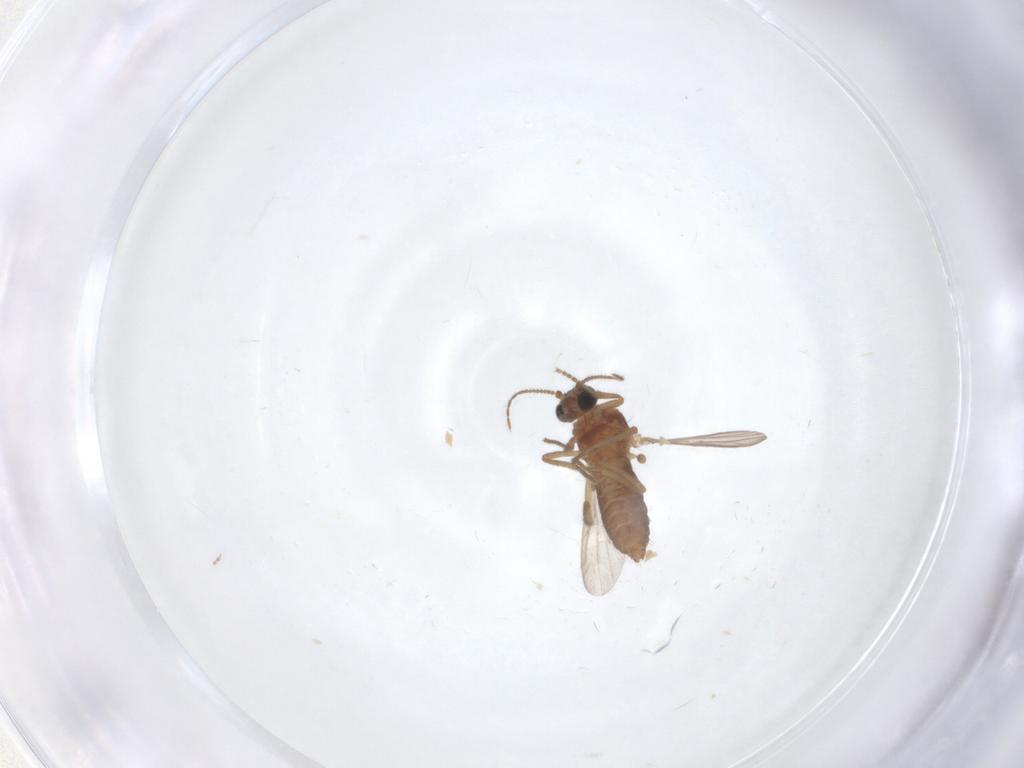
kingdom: Animalia
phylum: Arthropoda
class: Insecta
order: Diptera
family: Ceratopogonidae
